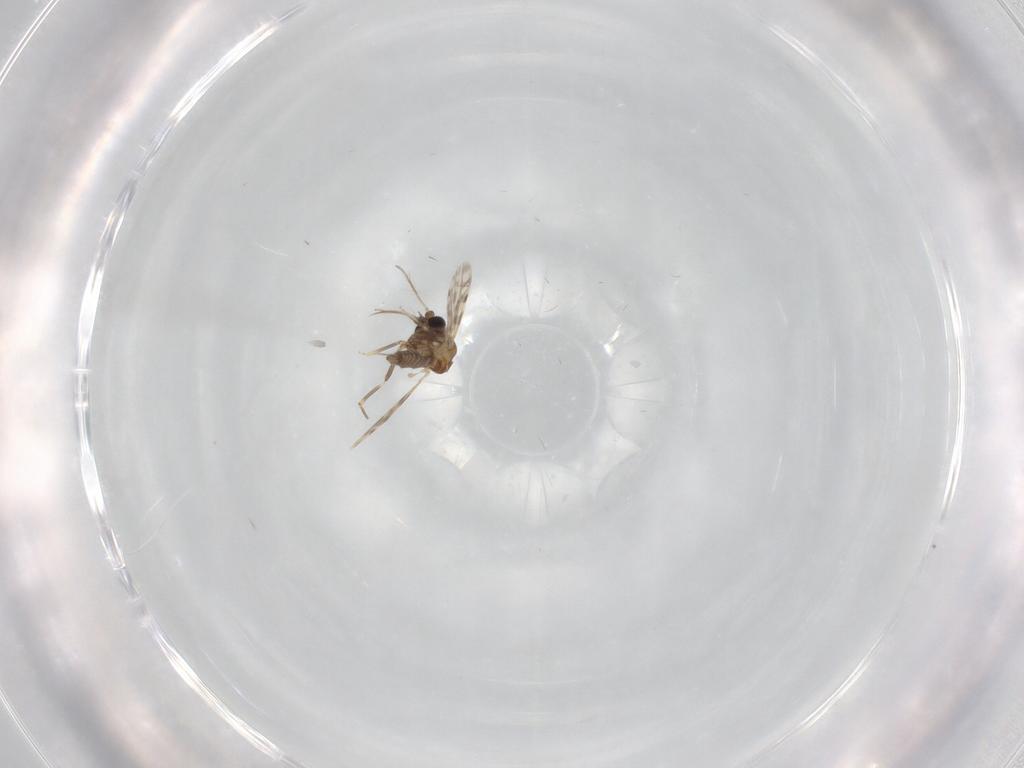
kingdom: Animalia
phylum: Arthropoda
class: Insecta
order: Diptera
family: Ceratopogonidae
